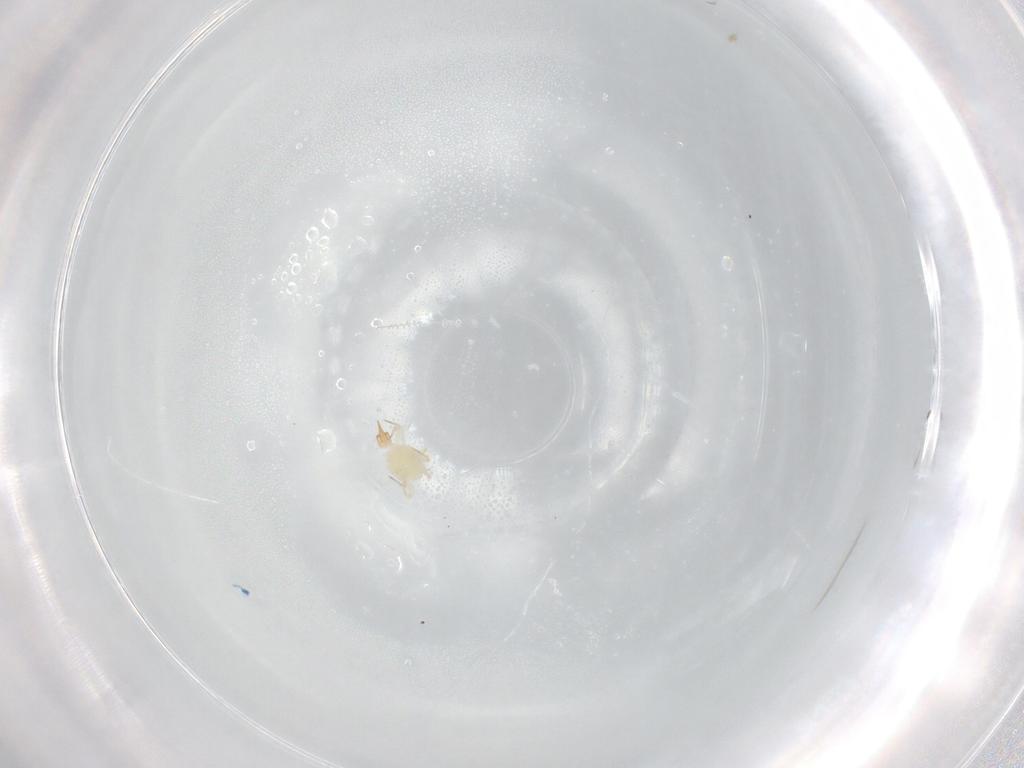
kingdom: Animalia
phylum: Arthropoda
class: Arachnida
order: Trombidiformes
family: Cunaxidae
